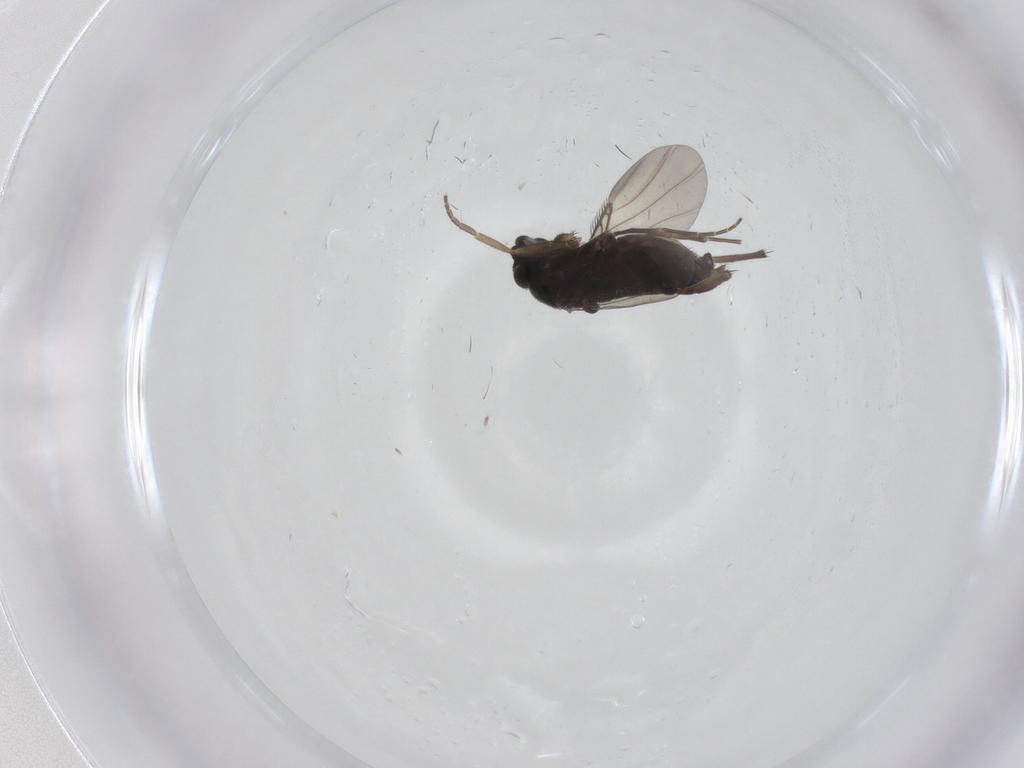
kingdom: Animalia
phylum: Arthropoda
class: Insecta
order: Diptera
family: Phoridae
